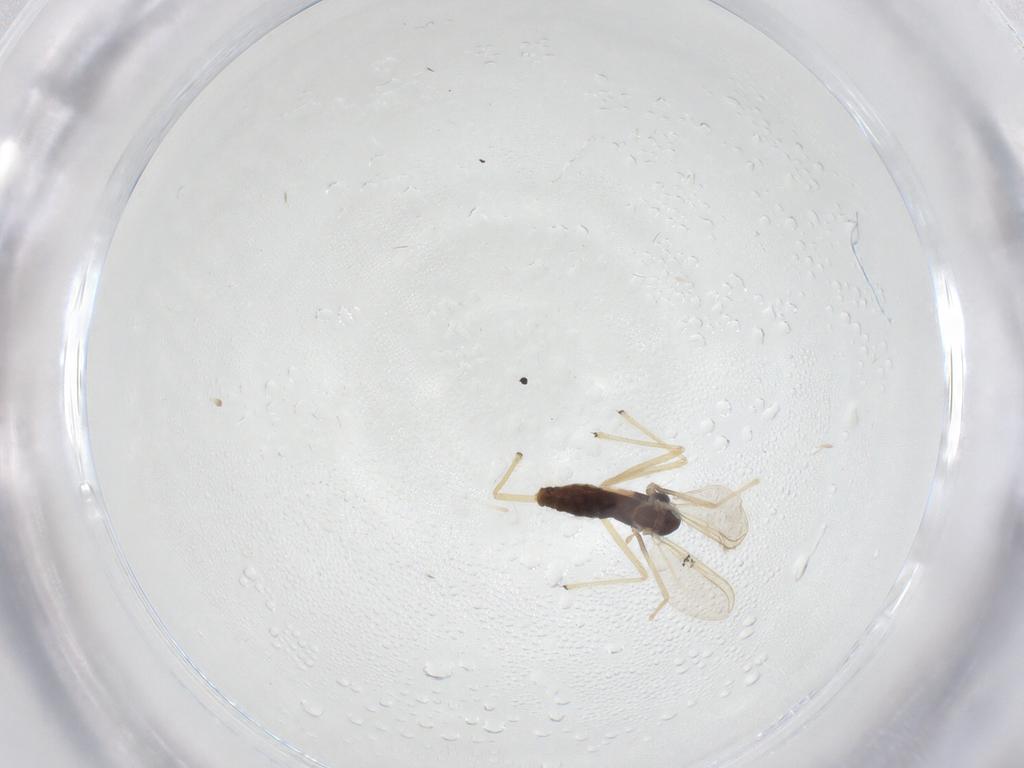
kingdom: Animalia
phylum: Arthropoda
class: Insecta
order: Diptera
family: Chironomidae
